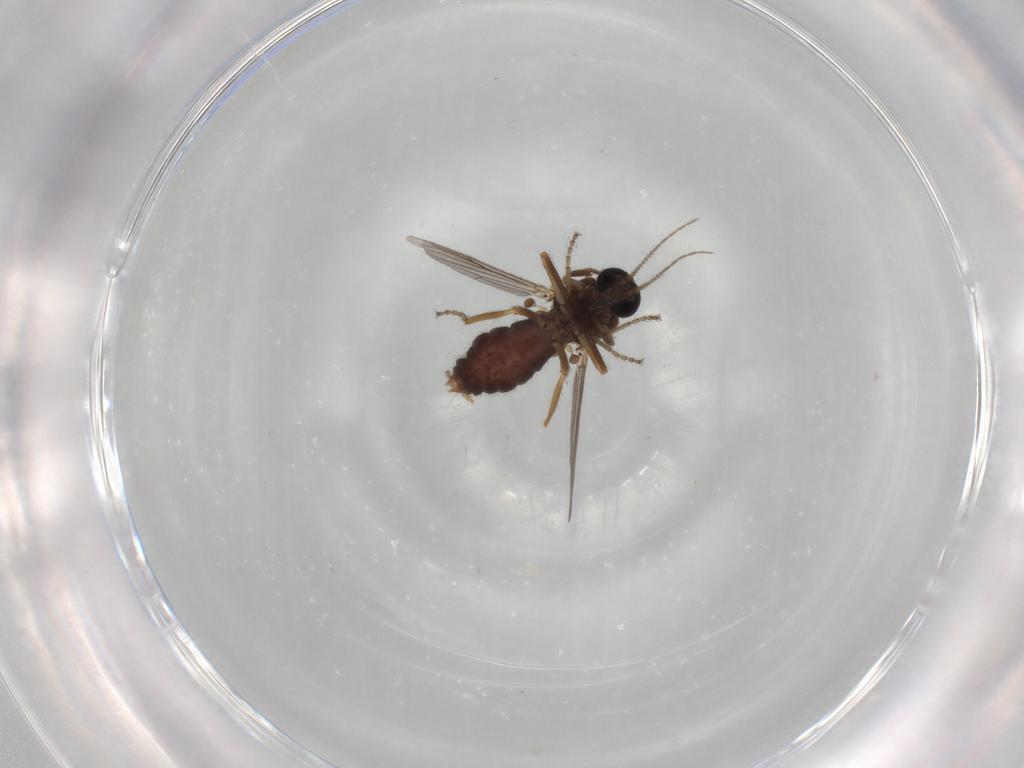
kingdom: Animalia
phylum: Arthropoda
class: Insecta
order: Diptera
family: Ceratopogonidae
